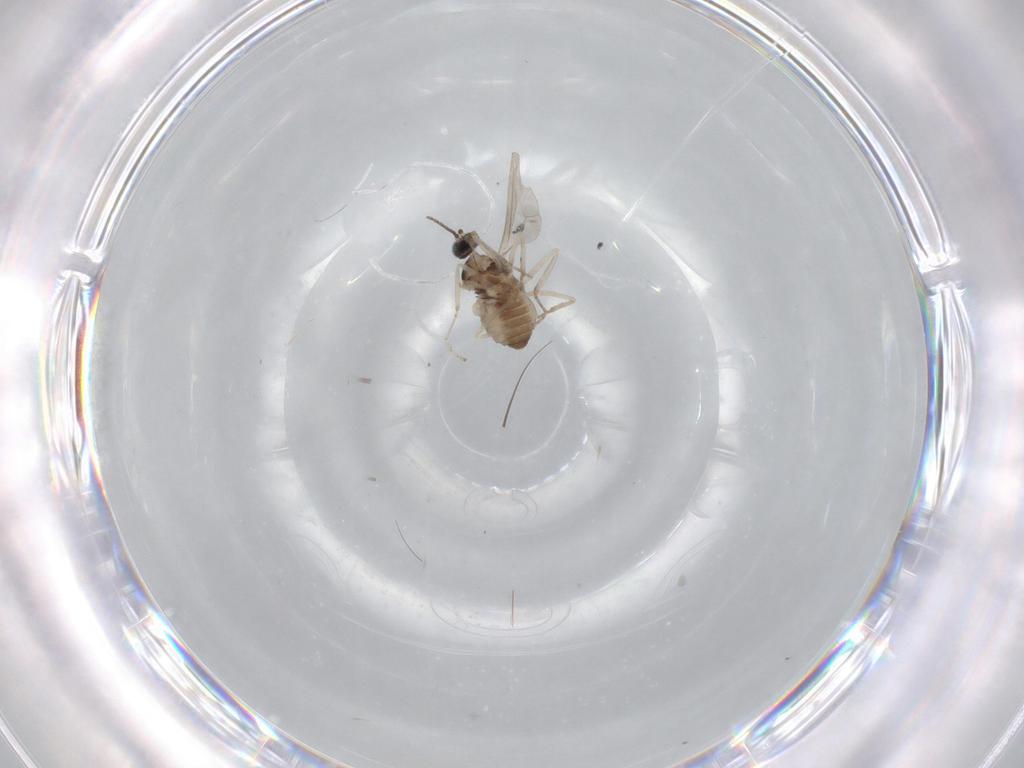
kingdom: Animalia
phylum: Arthropoda
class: Insecta
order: Diptera
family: Cecidomyiidae
